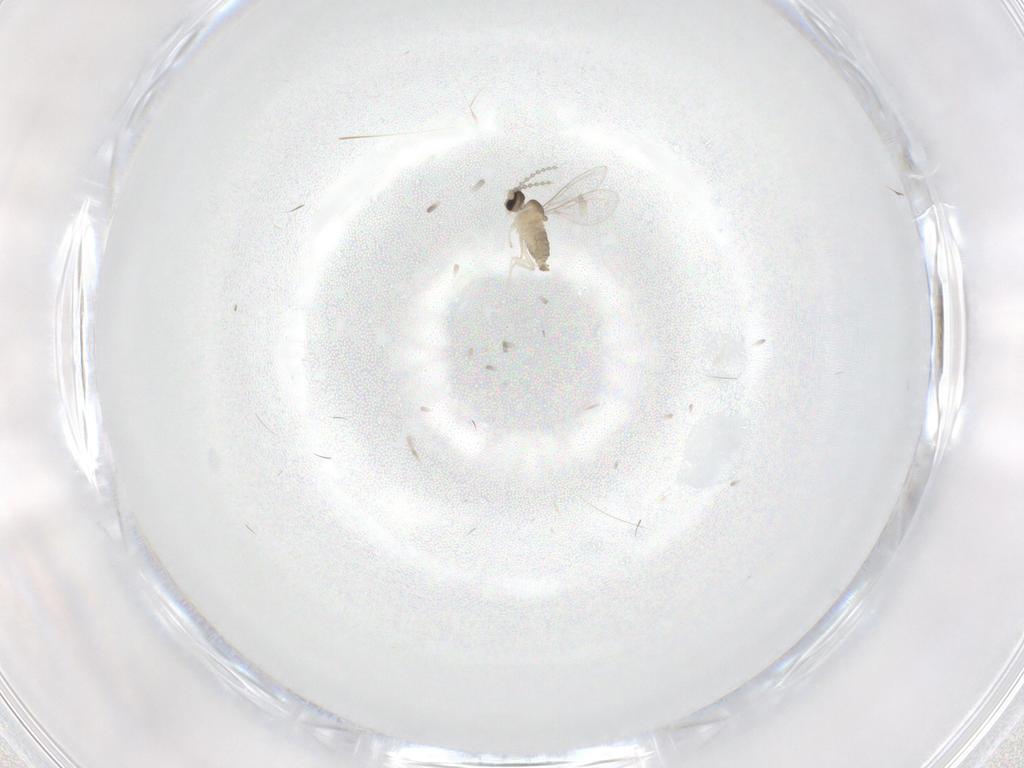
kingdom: Animalia
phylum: Arthropoda
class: Insecta
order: Diptera
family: Cecidomyiidae
